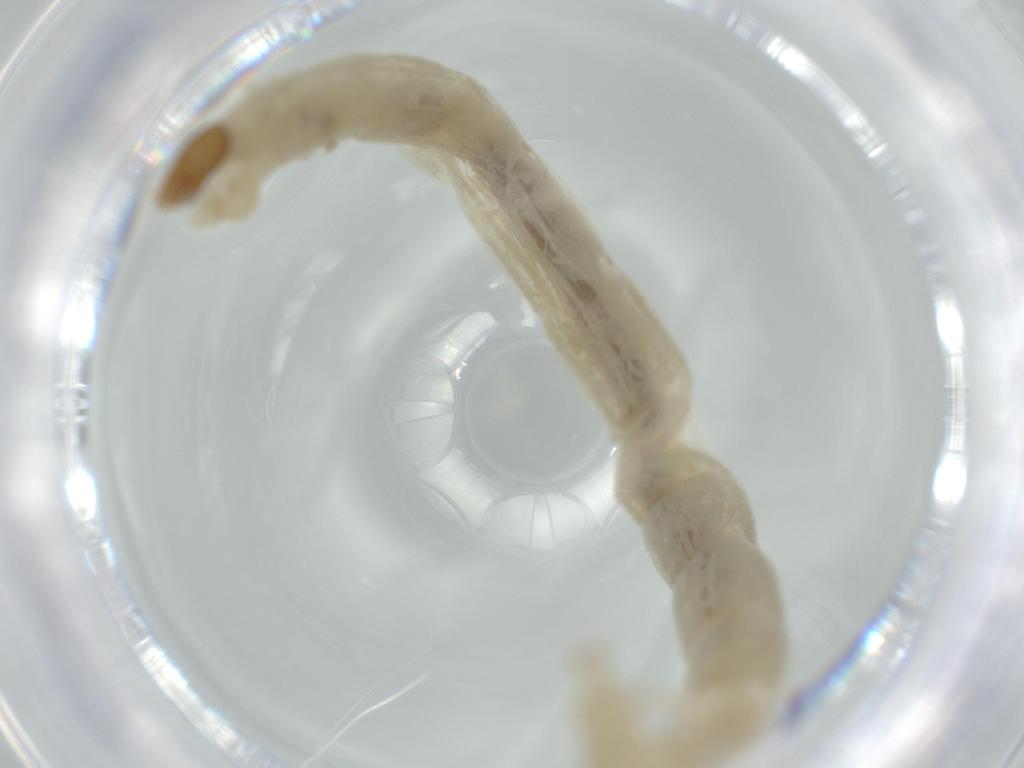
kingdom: Animalia
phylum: Arthropoda
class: Insecta
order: Diptera
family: Chironomidae
